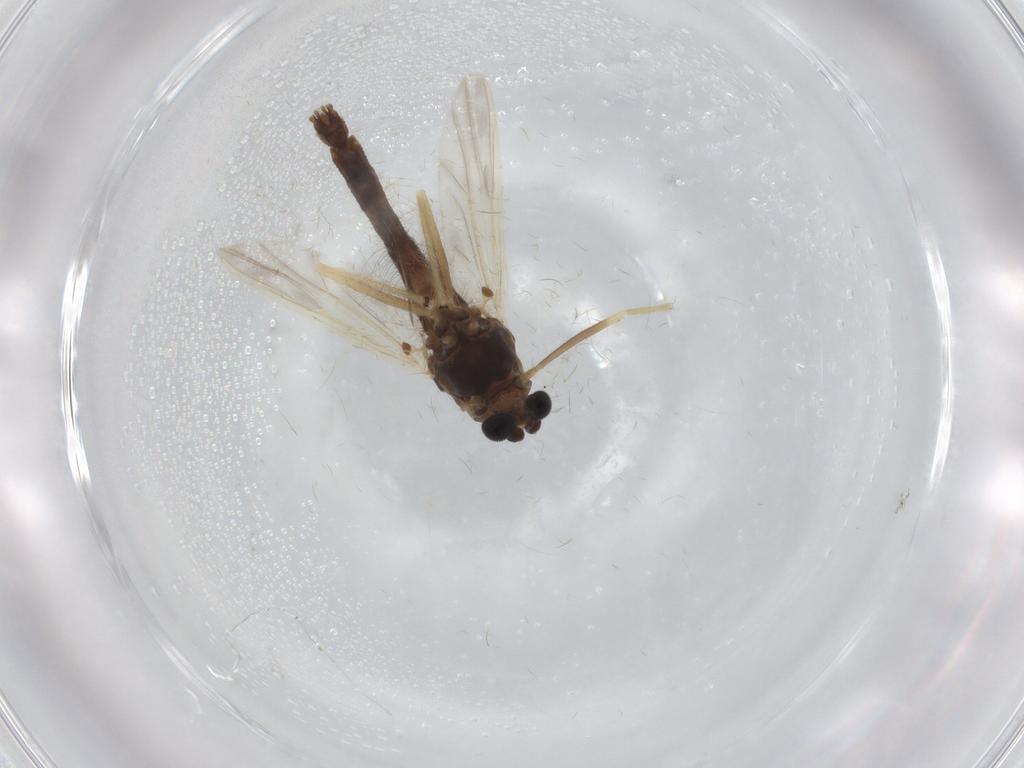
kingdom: Animalia
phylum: Arthropoda
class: Insecta
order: Diptera
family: Chironomidae
